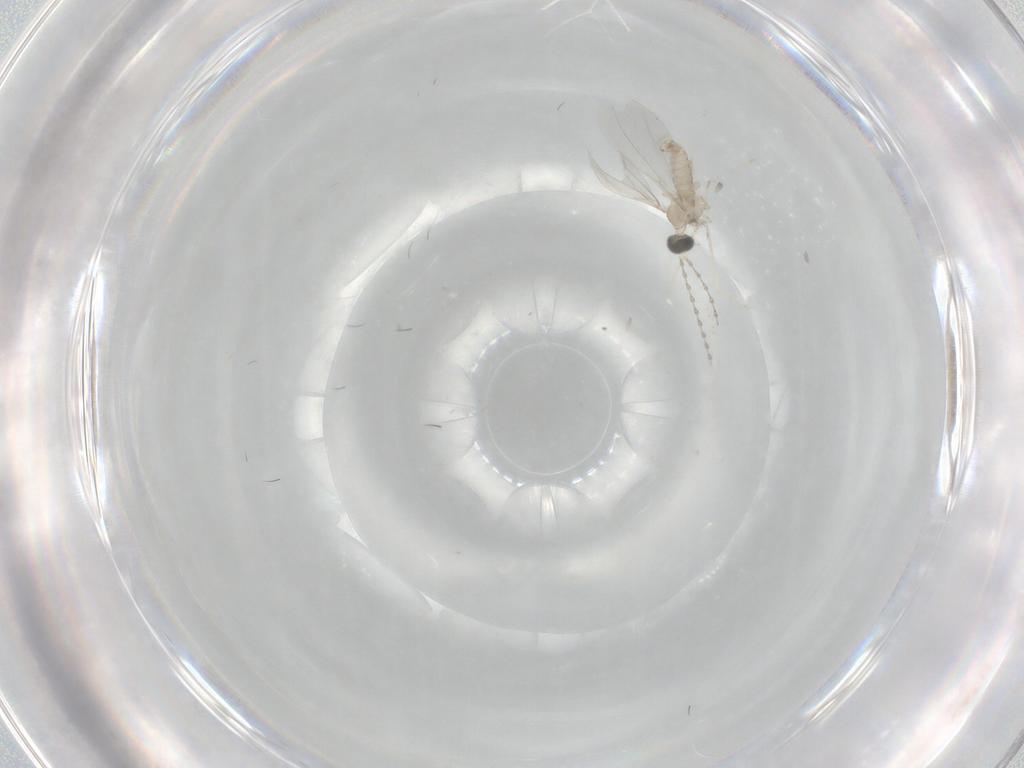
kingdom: Animalia
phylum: Arthropoda
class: Insecta
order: Diptera
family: Cecidomyiidae
